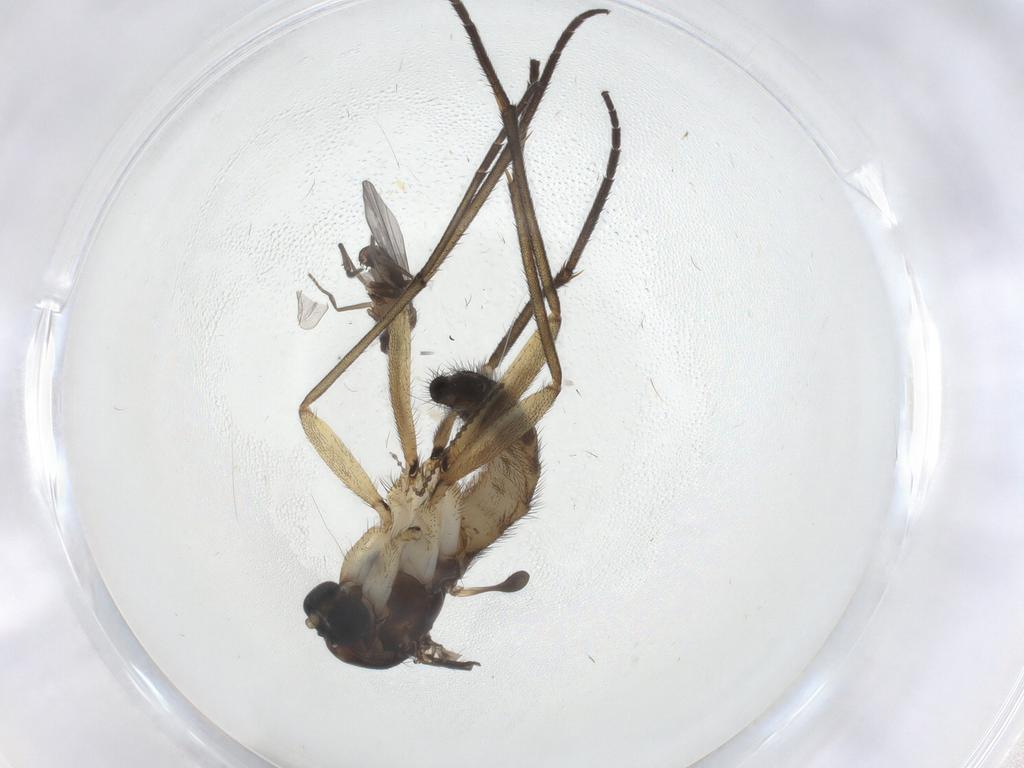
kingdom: Animalia
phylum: Arthropoda
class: Insecta
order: Diptera
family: Phoridae
